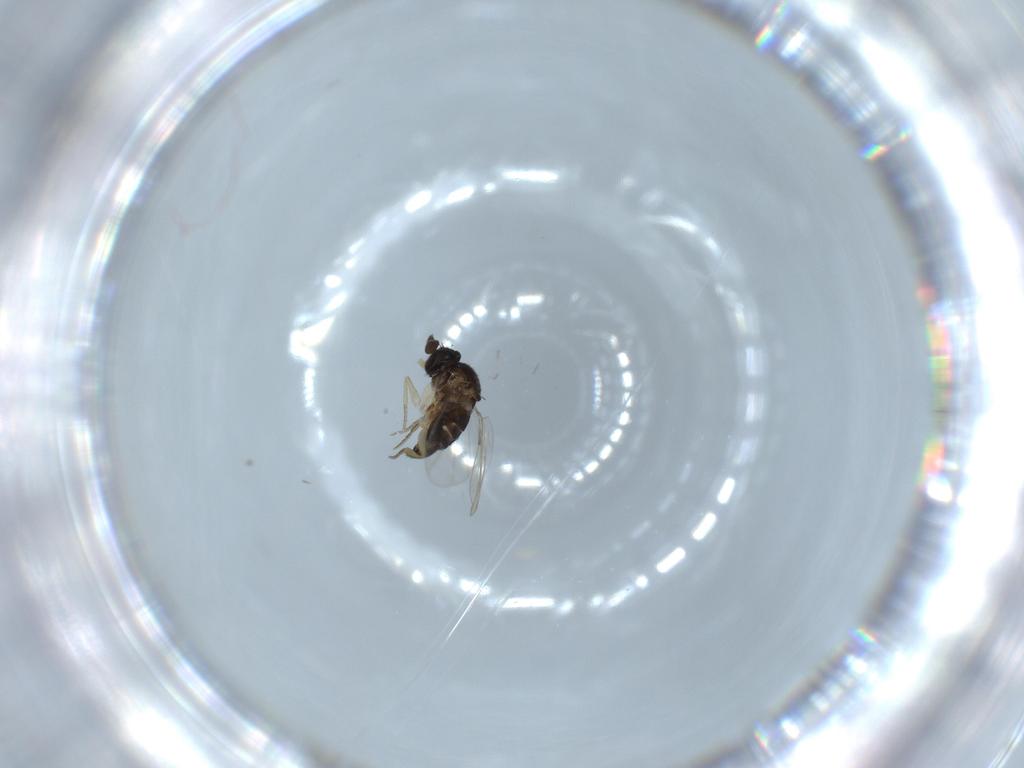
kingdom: Animalia
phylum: Arthropoda
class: Insecta
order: Diptera
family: Phoridae
